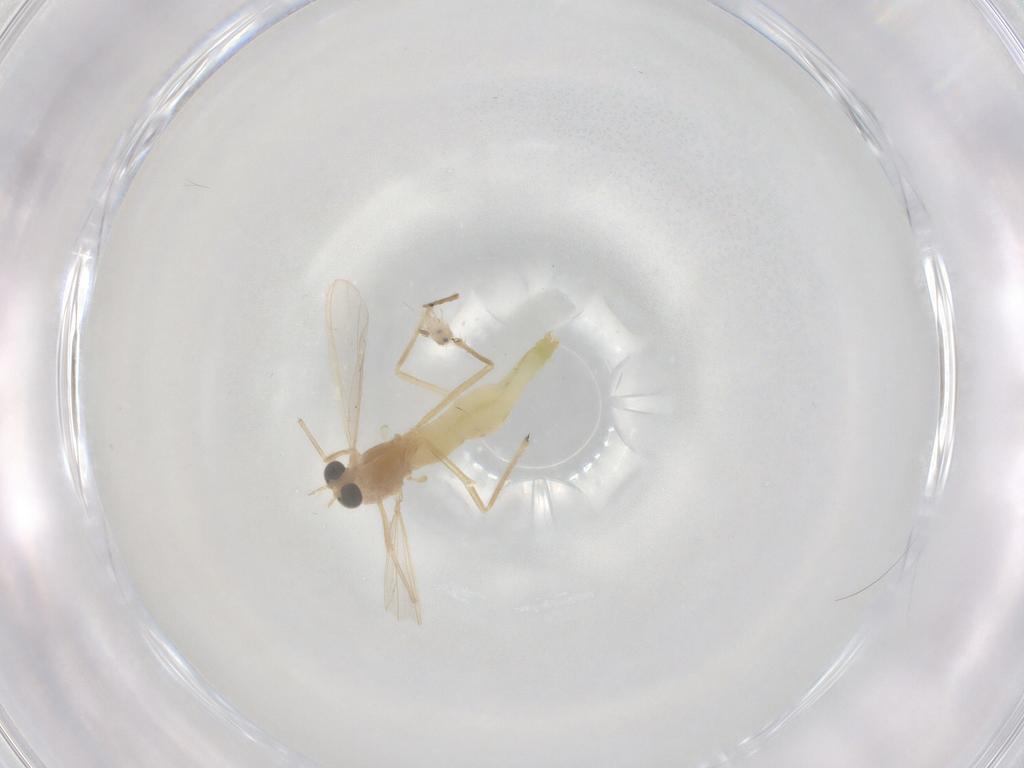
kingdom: Animalia
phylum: Arthropoda
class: Insecta
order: Diptera
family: Chironomidae
